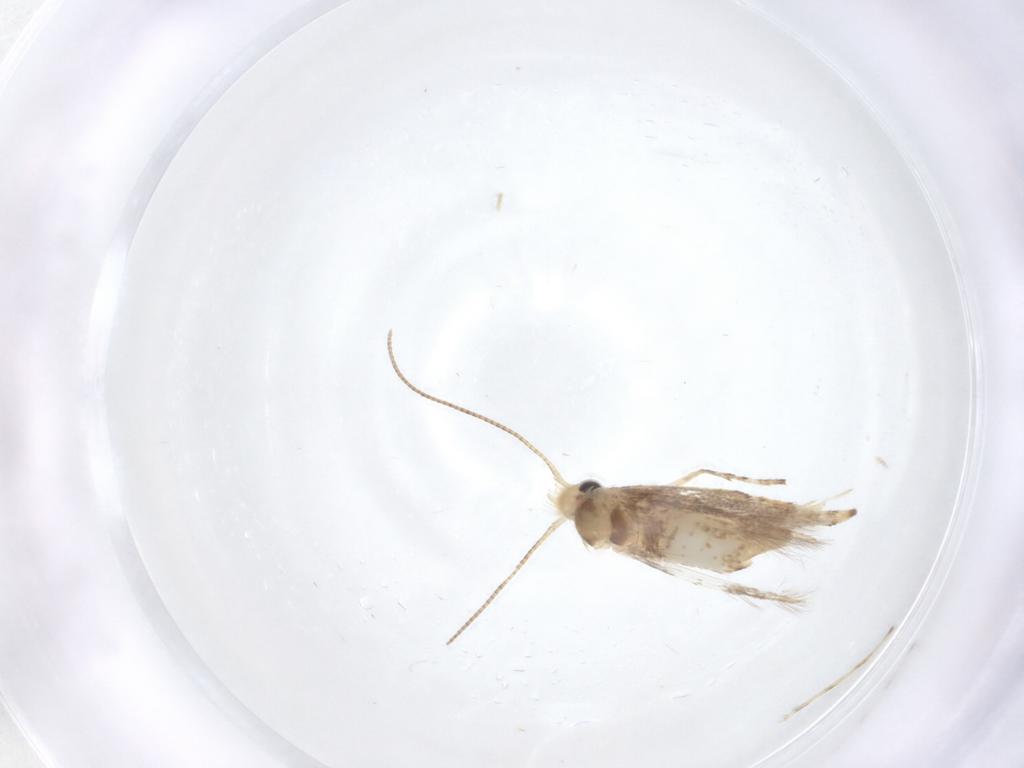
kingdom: Animalia
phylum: Arthropoda
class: Insecta
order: Lepidoptera
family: Gracillariidae
